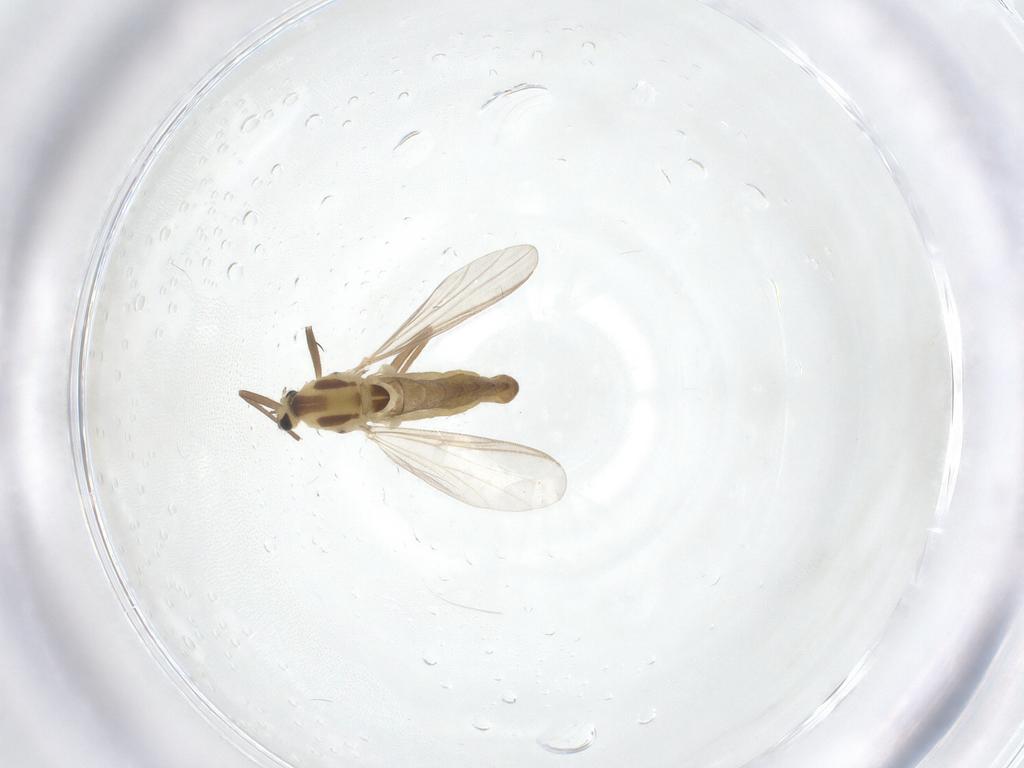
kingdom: Animalia
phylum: Arthropoda
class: Insecta
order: Diptera
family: Chironomidae
